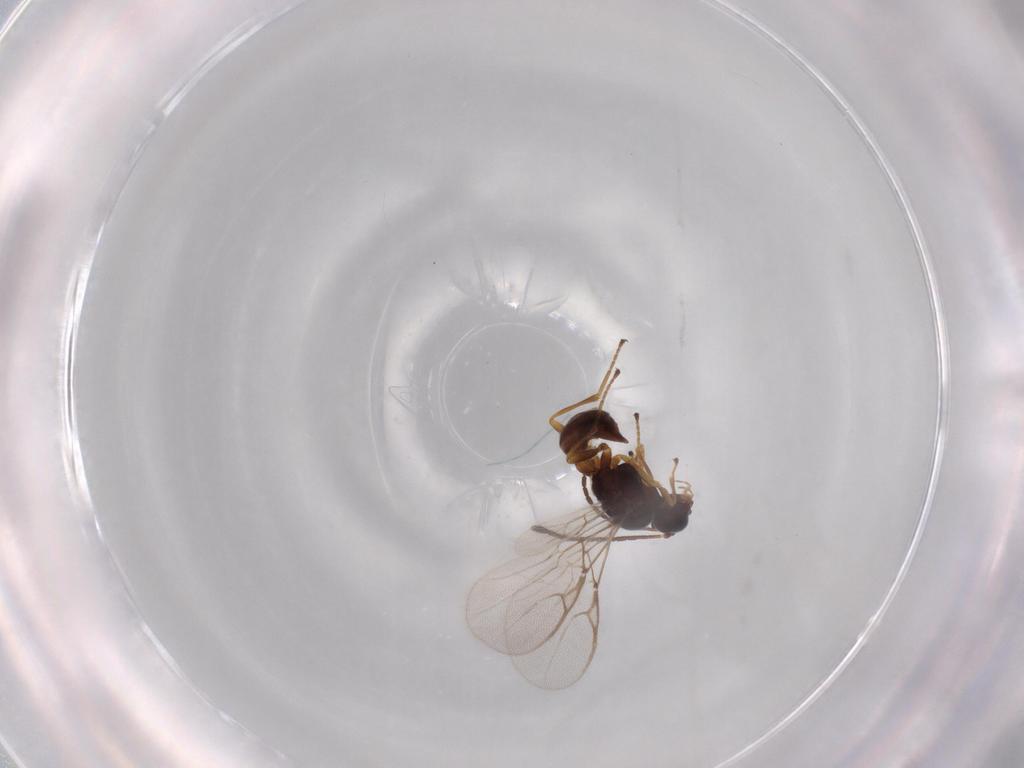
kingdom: Animalia
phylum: Arthropoda
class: Insecta
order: Hymenoptera
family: Braconidae
